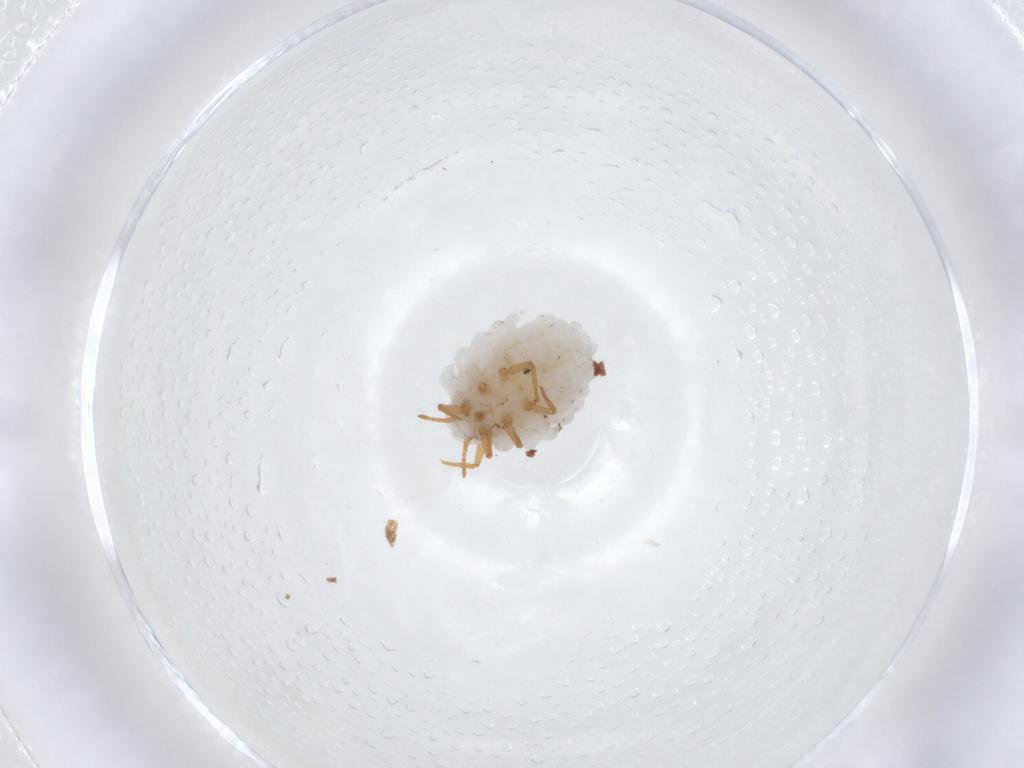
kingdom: Animalia
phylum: Arthropoda
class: Insecta
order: Hemiptera
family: Ortheziidae
